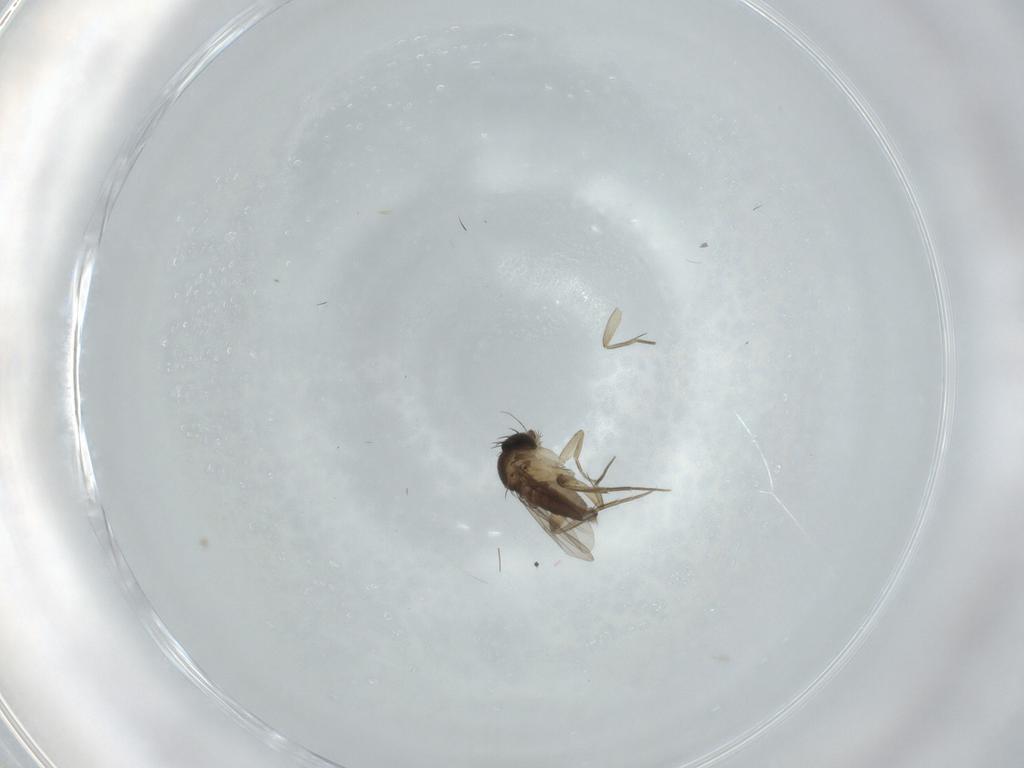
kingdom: Animalia
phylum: Arthropoda
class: Insecta
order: Diptera
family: Phoridae
